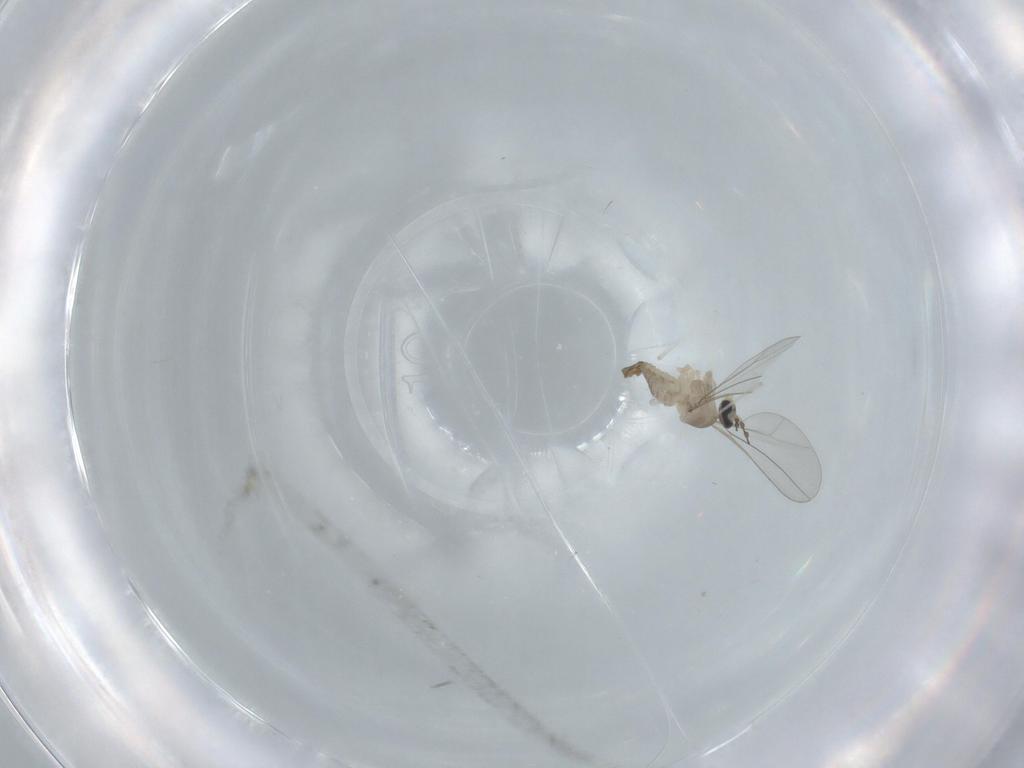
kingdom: Animalia
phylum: Arthropoda
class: Insecta
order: Diptera
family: Cecidomyiidae
